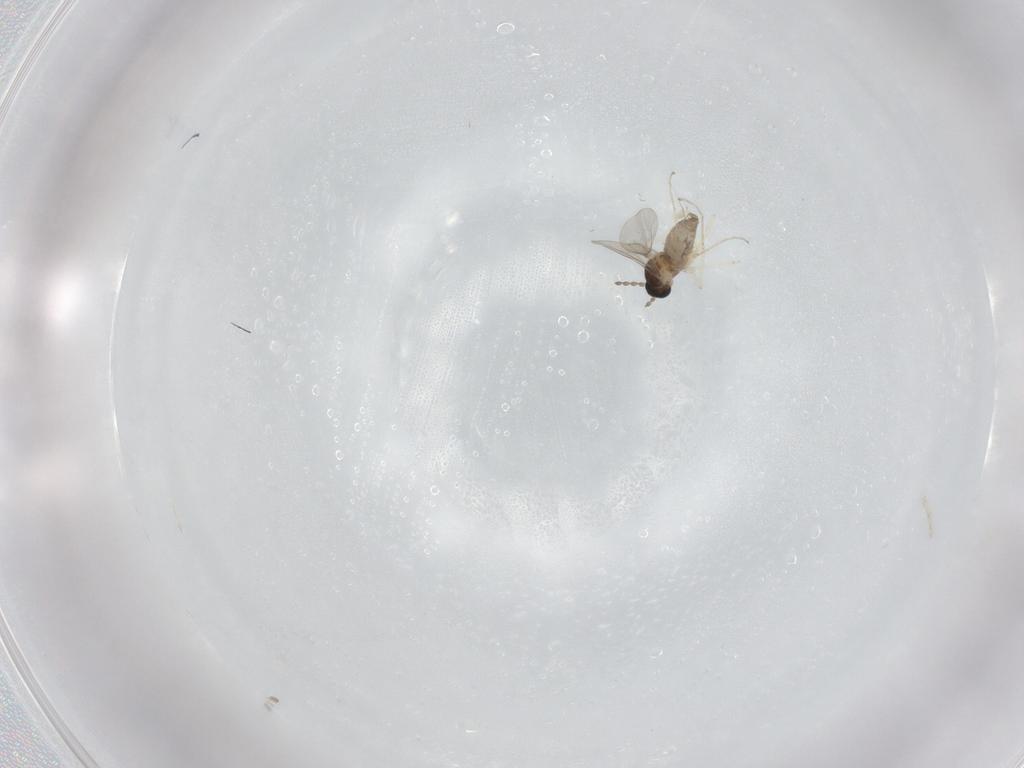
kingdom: Animalia
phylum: Arthropoda
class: Insecta
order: Diptera
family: Cecidomyiidae
